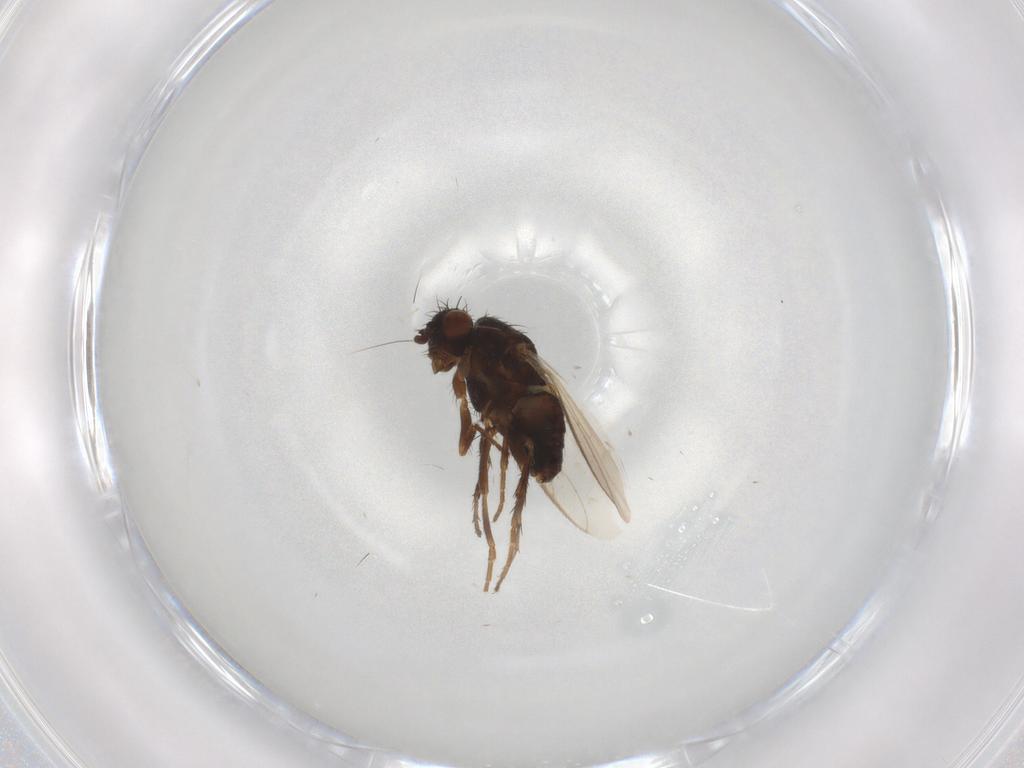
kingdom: Animalia
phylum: Arthropoda
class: Insecta
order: Diptera
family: Sphaeroceridae
